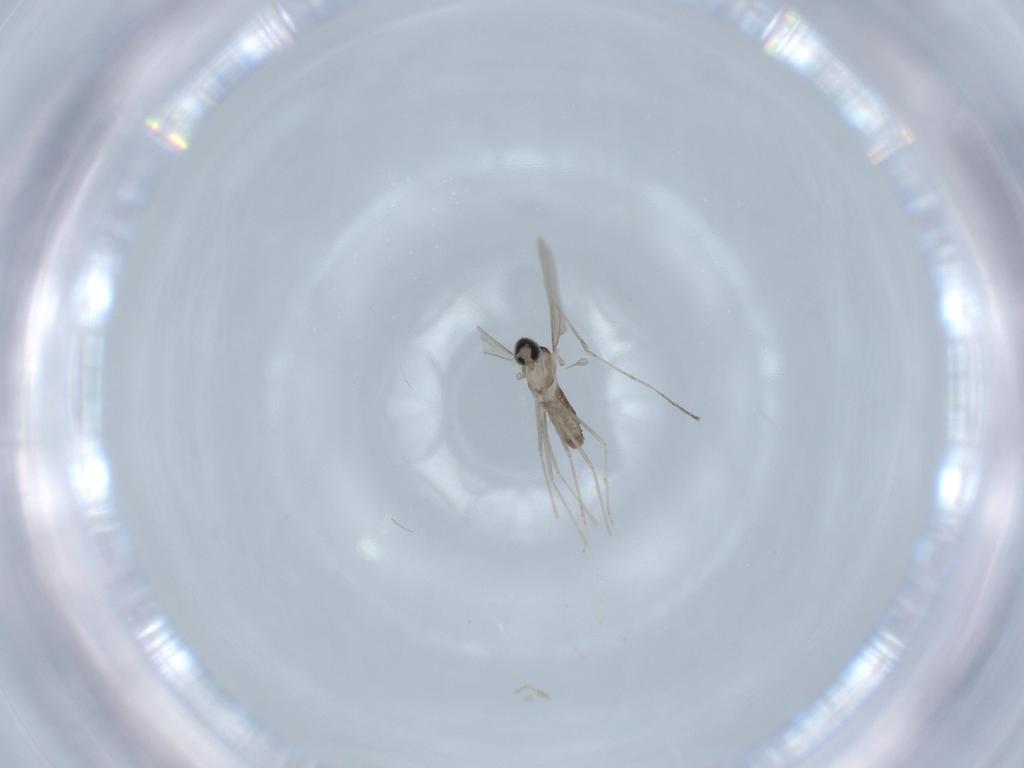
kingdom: Animalia
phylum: Arthropoda
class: Insecta
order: Diptera
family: Cecidomyiidae
